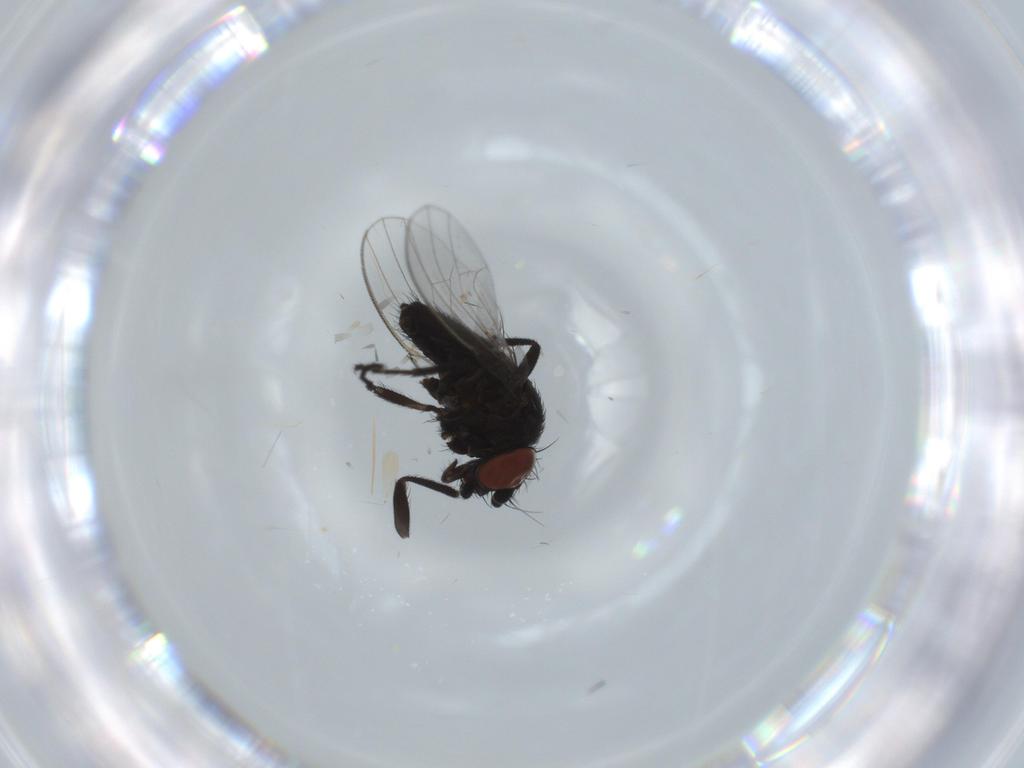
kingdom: Animalia
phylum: Arthropoda
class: Insecta
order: Diptera
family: Milichiidae
